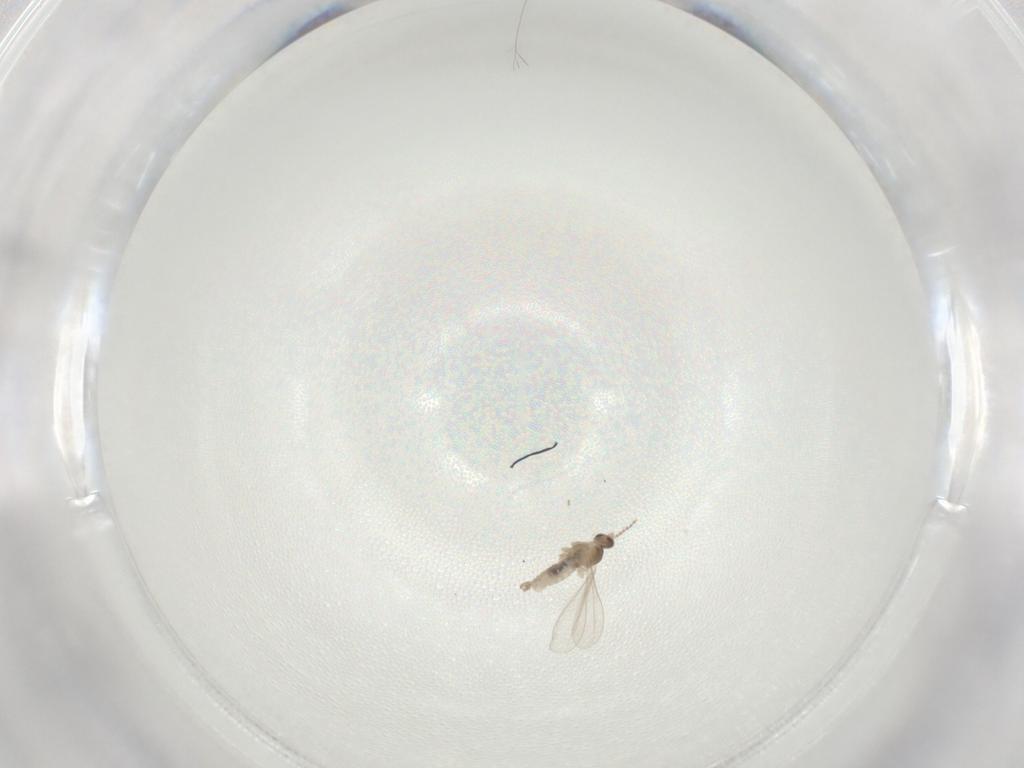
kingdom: Animalia
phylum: Arthropoda
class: Insecta
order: Diptera
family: Cecidomyiidae
